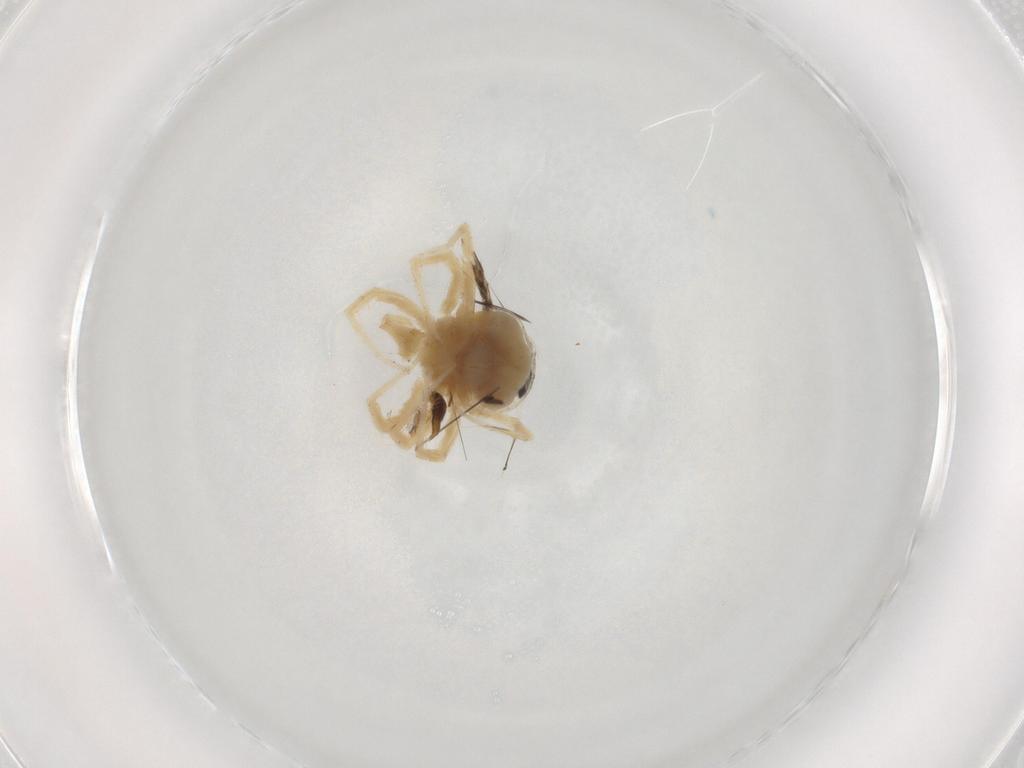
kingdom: Animalia
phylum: Arthropoda
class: Arachnida
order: Trombidiformes
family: Anystidae
